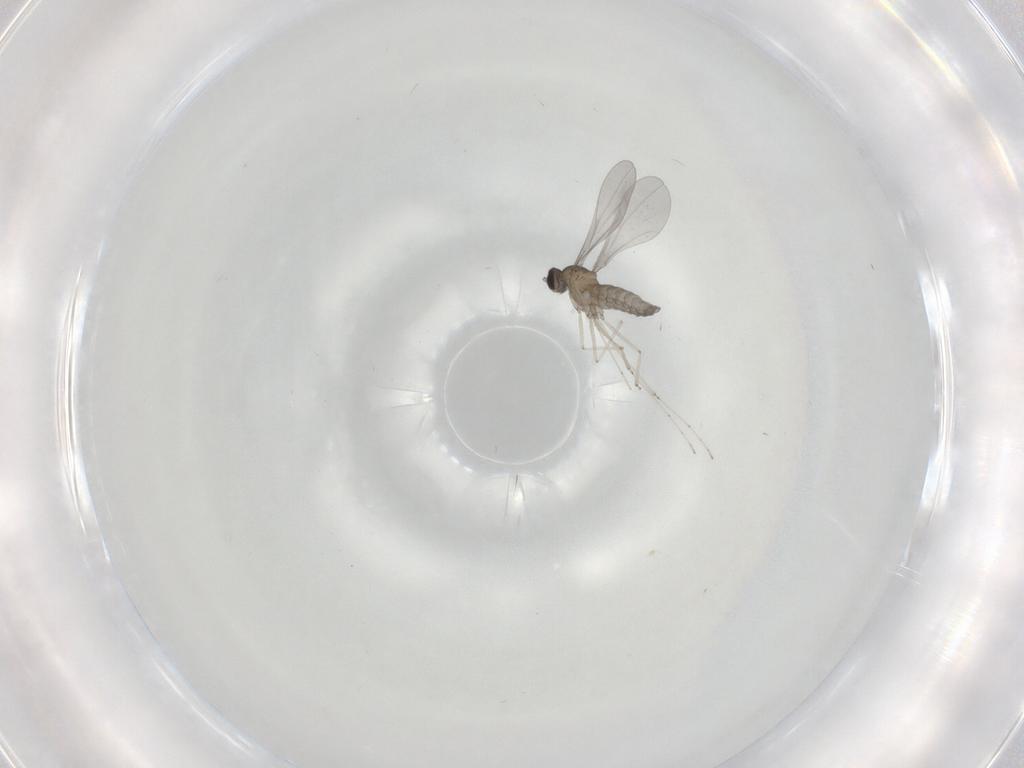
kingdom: Animalia
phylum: Arthropoda
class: Insecta
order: Diptera
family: Cecidomyiidae
